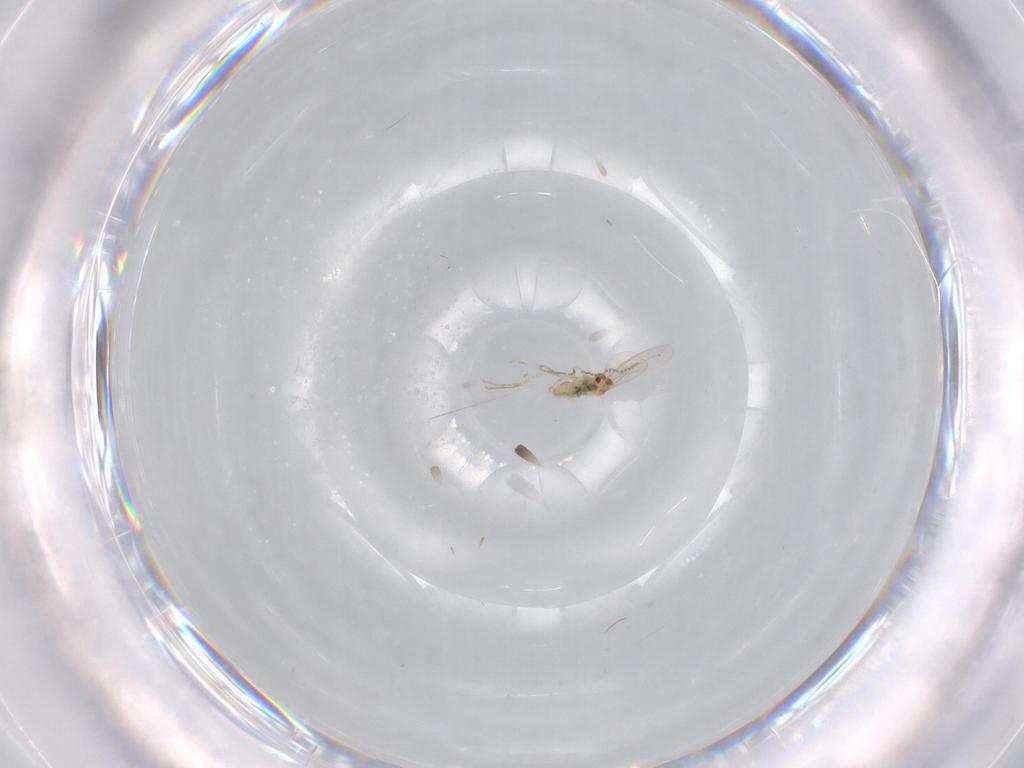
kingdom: Animalia
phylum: Arthropoda
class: Insecta
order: Diptera
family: Cecidomyiidae
